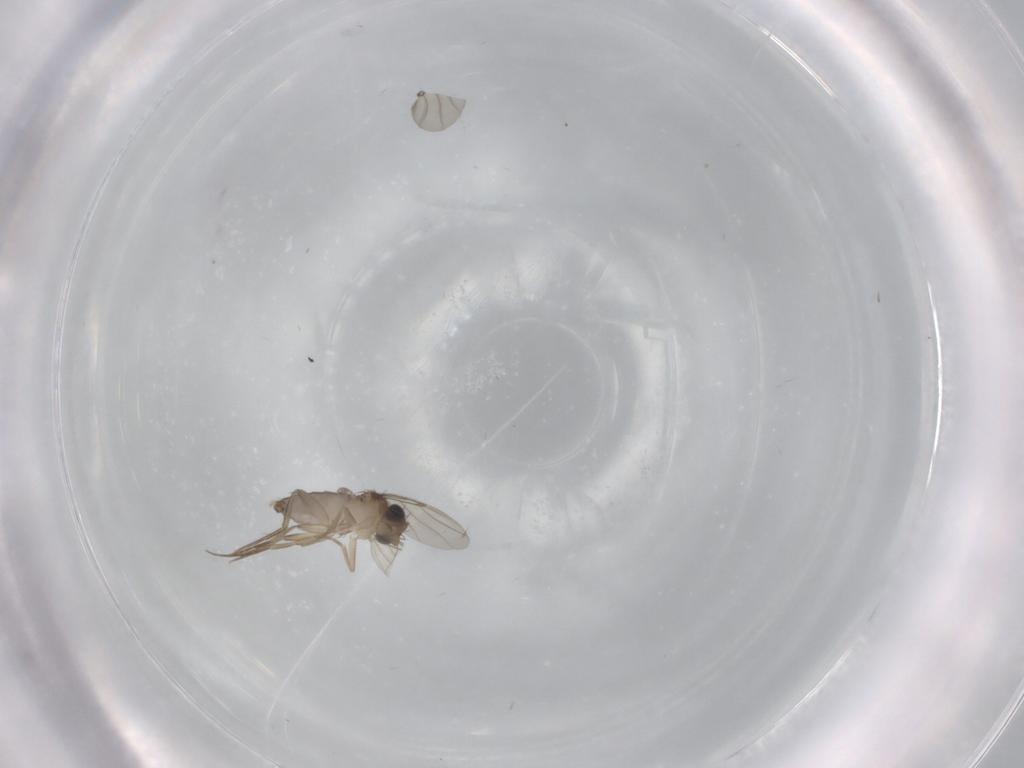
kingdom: Animalia
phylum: Arthropoda
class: Insecta
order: Diptera
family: Phoridae
